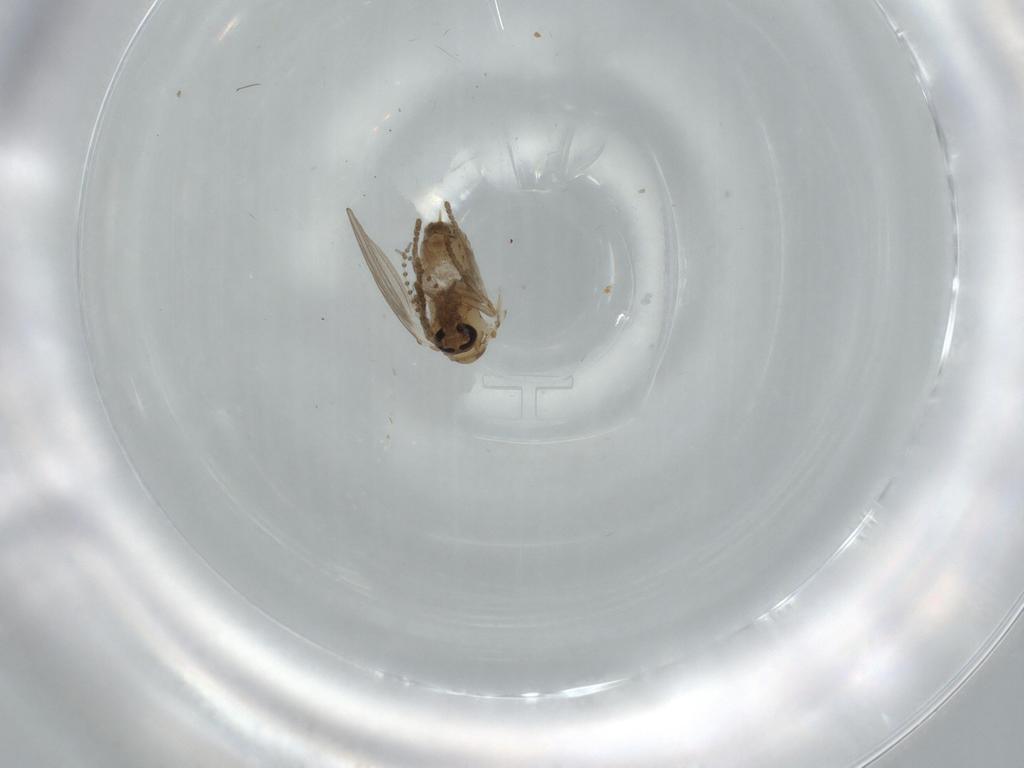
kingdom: Animalia
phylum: Arthropoda
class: Insecta
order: Diptera
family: Psychodidae
